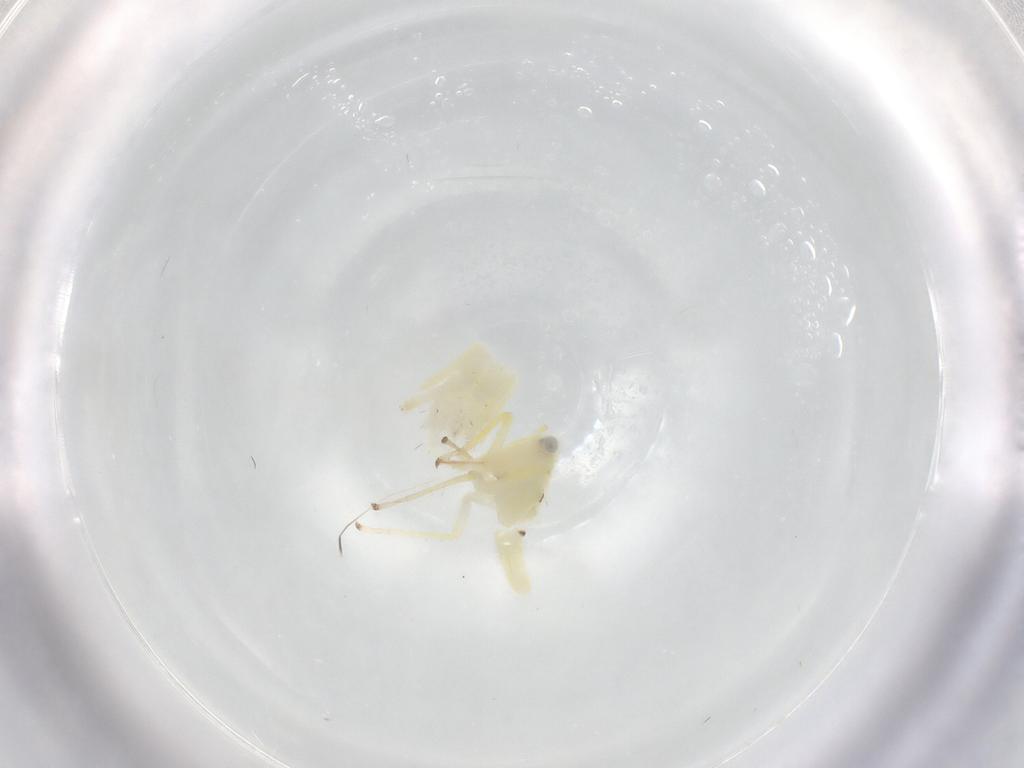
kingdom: Animalia
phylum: Arthropoda
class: Insecta
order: Hemiptera
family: Cicadellidae
